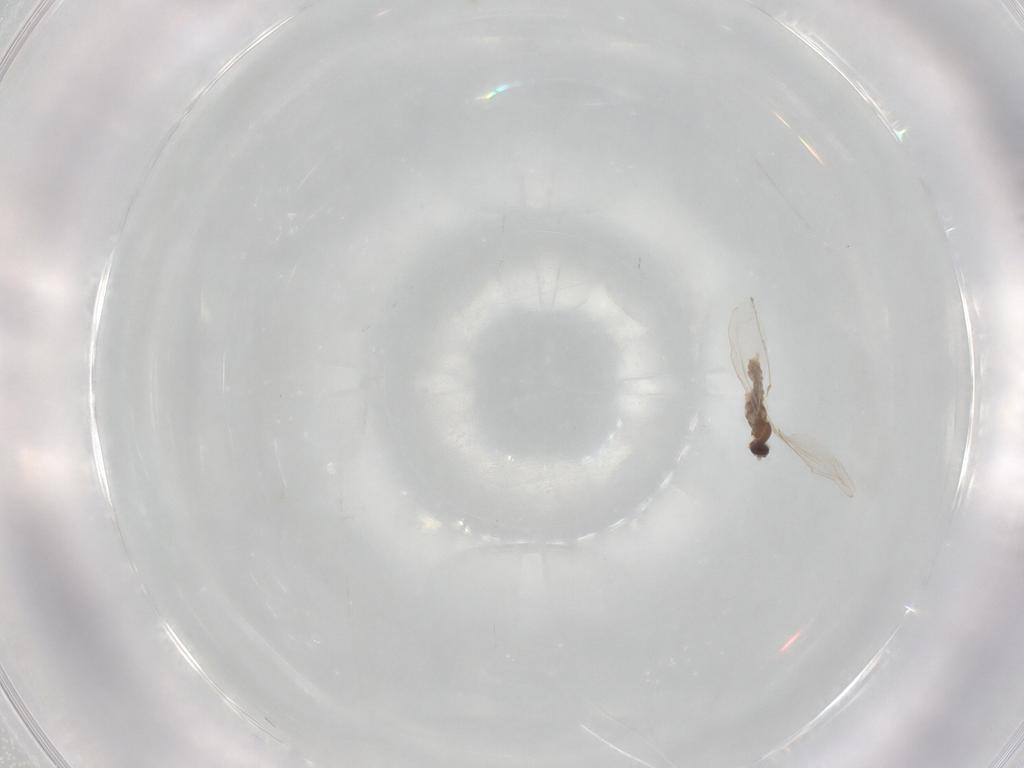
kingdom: Animalia
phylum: Arthropoda
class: Insecta
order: Diptera
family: Cecidomyiidae
